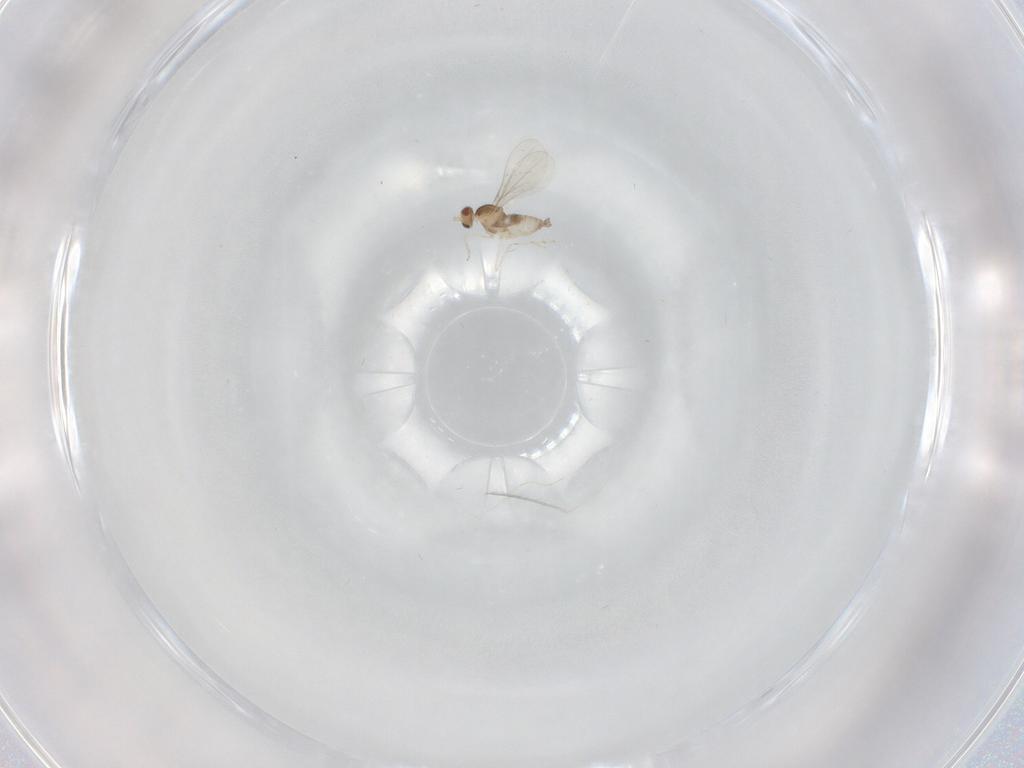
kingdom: Animalia
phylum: Arthropoda
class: Insecta
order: Diptera
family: Cecidomyiidae
